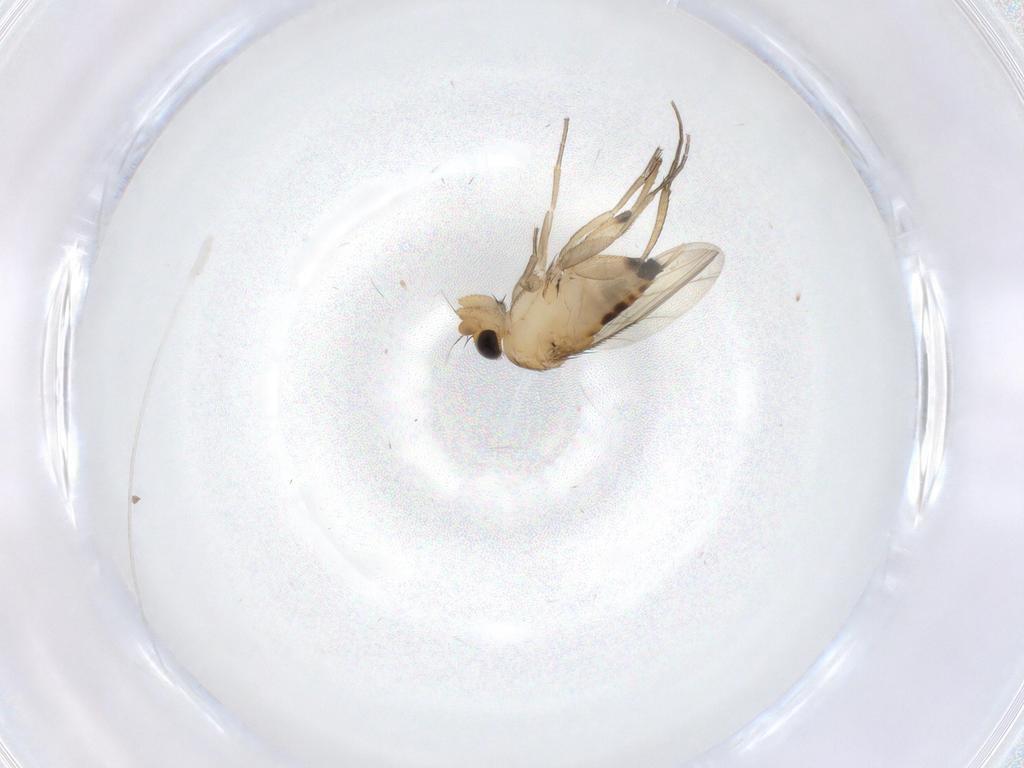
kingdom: Animalia
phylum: Arthropoda
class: Insecta
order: Diptera
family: Phoridae
